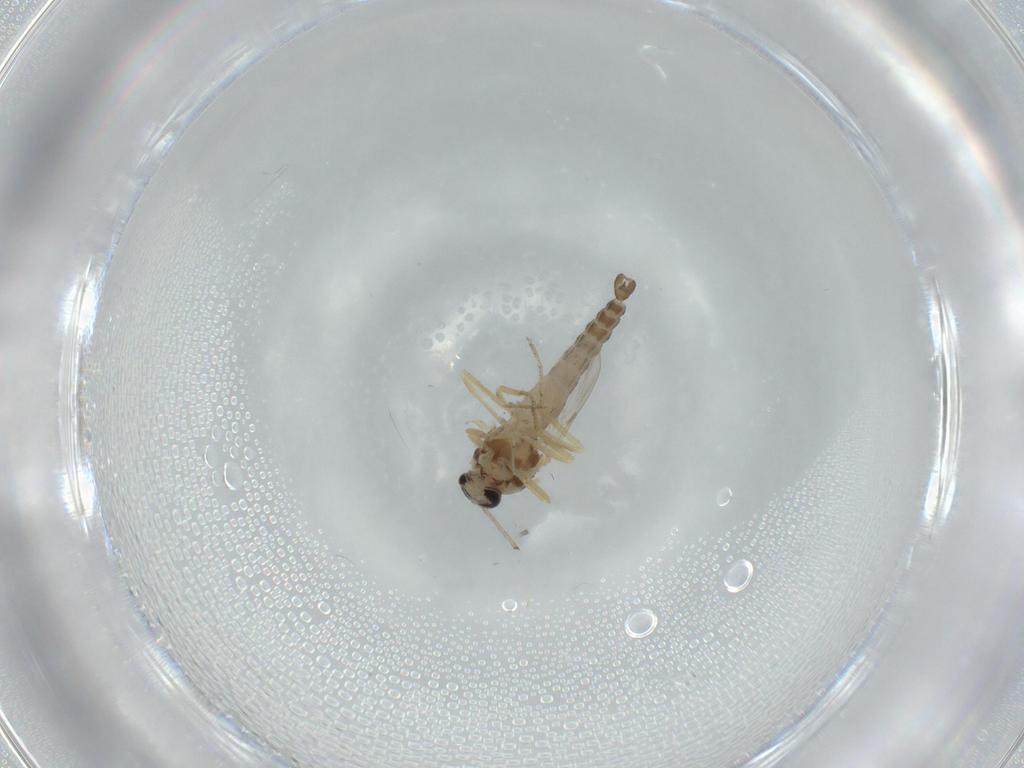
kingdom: Animalia
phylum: Arthropoda
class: Insecta
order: Diptera
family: Ceratopogonidae
